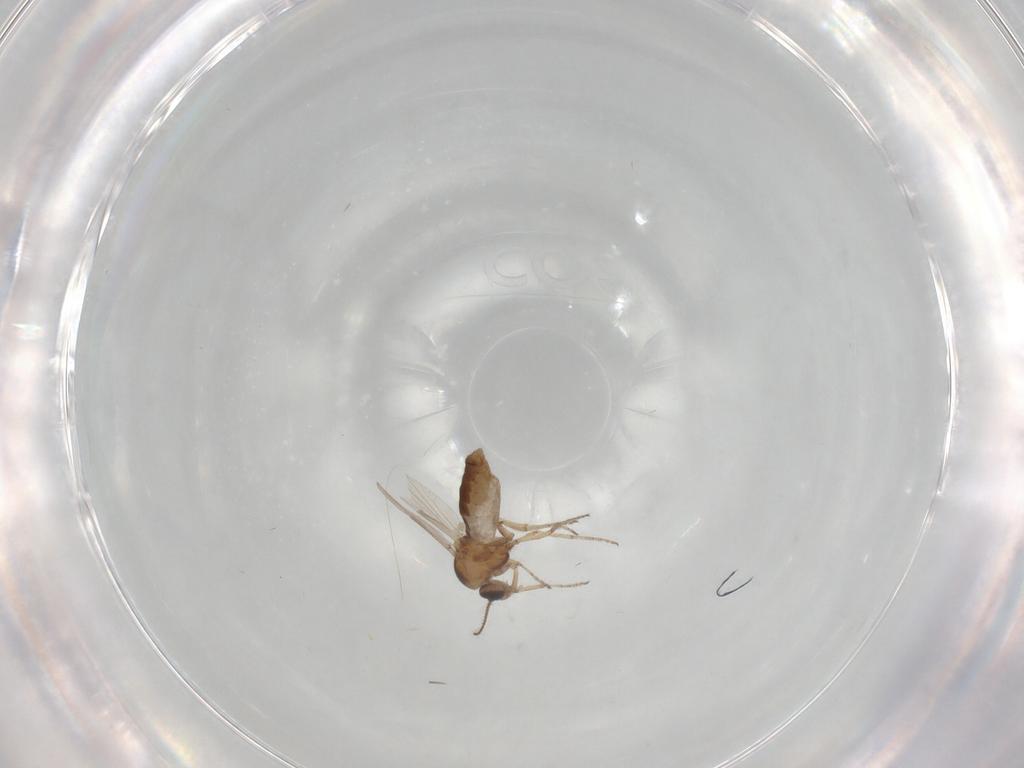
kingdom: Animalia
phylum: Arthropoda
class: Insecta
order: Diptera
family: Ceratopogonidae
